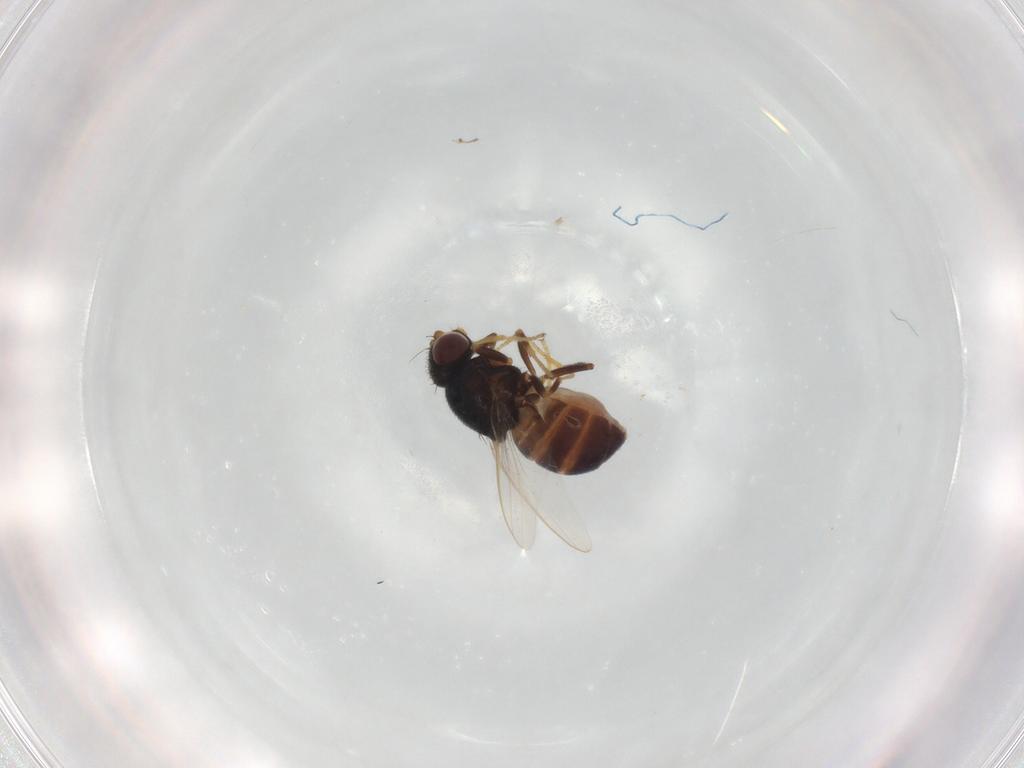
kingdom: Animalia
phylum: Arthropoda
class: Insecta
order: Diptera
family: Chloropidae
